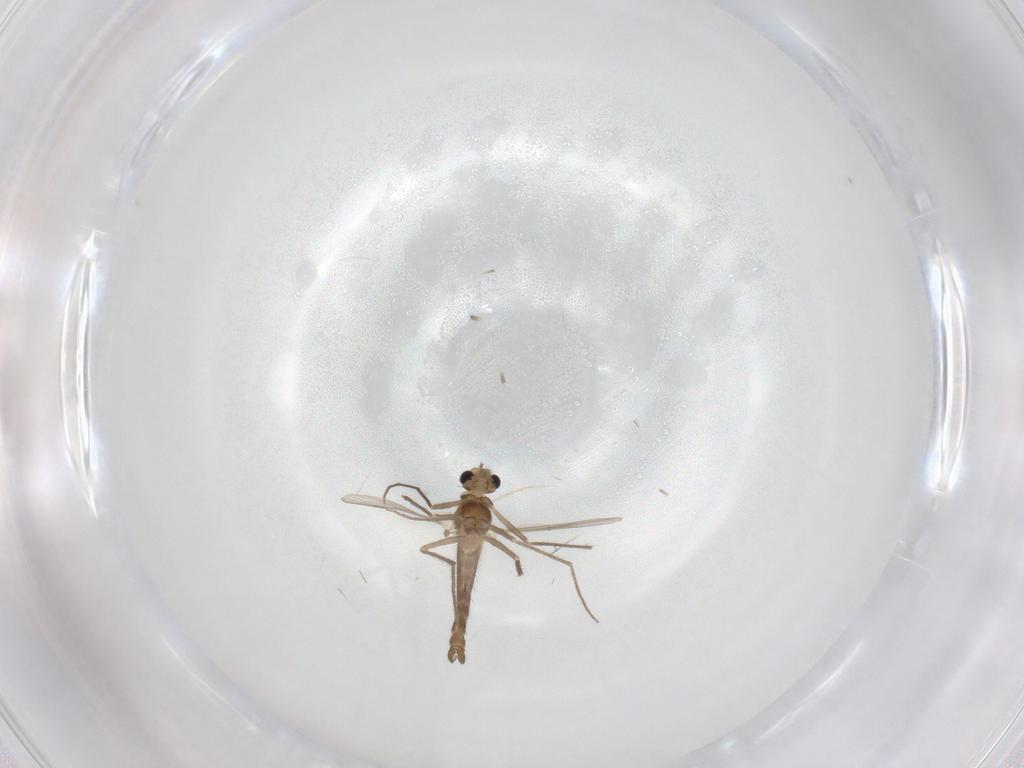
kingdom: Animalia
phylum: Arthropoda
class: Insecta
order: Diptera
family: Chironomidae
